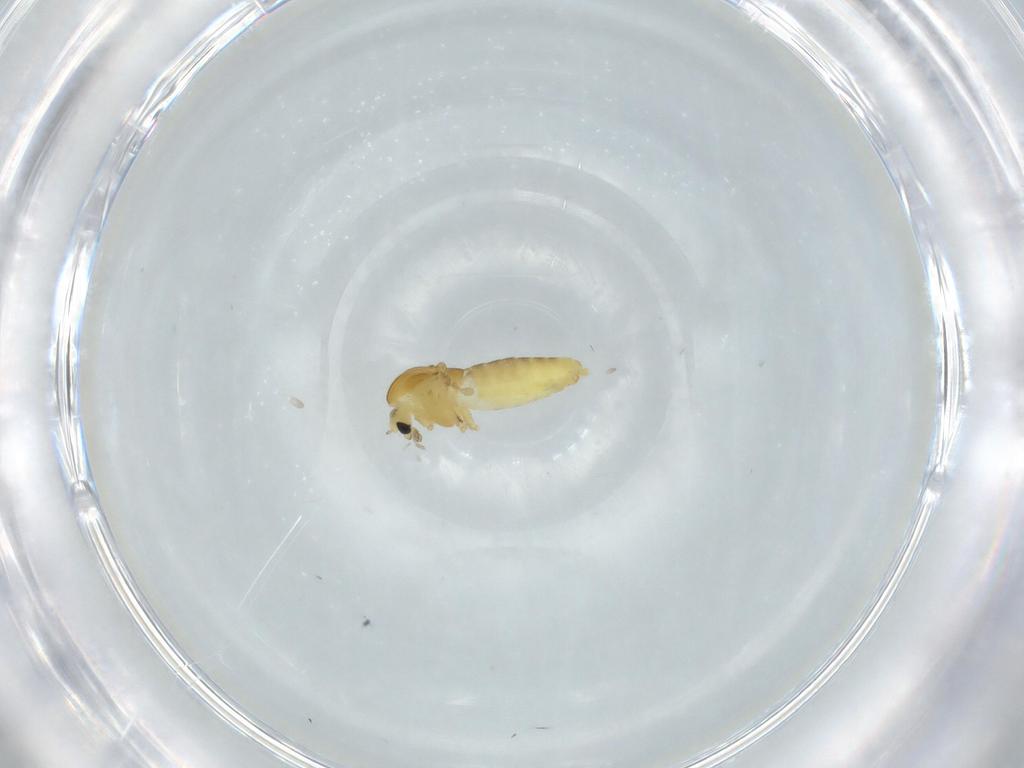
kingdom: Animalia
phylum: Arthropoda
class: Insecta
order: Diptera
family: Chironomidae
